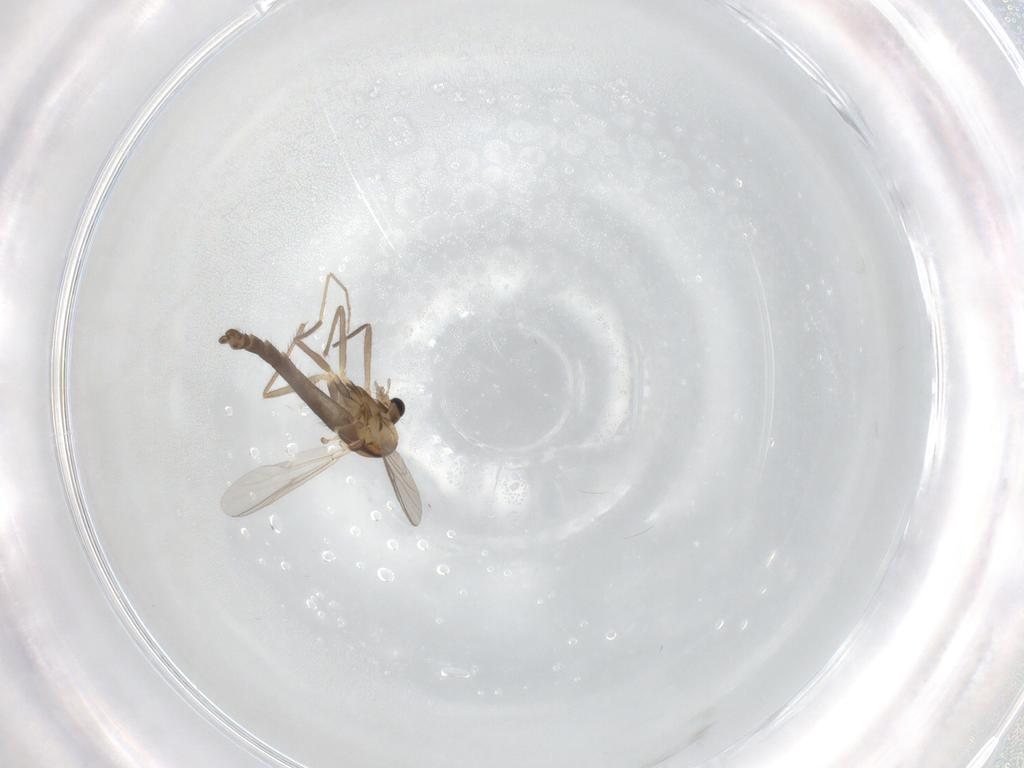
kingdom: Animalia
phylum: Arthropoda
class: Insecta
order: Diptera
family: Chironomidae
